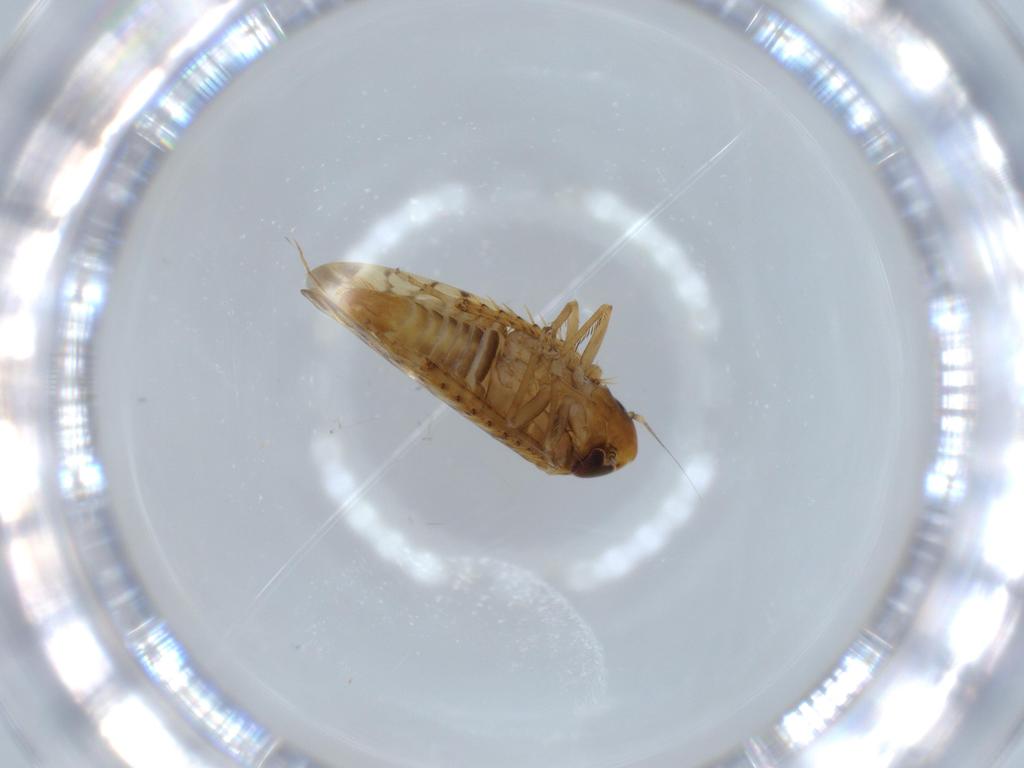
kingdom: Animalia
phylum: Arthropoda
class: Insecta
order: Hemiptera
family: Cicadellidae
